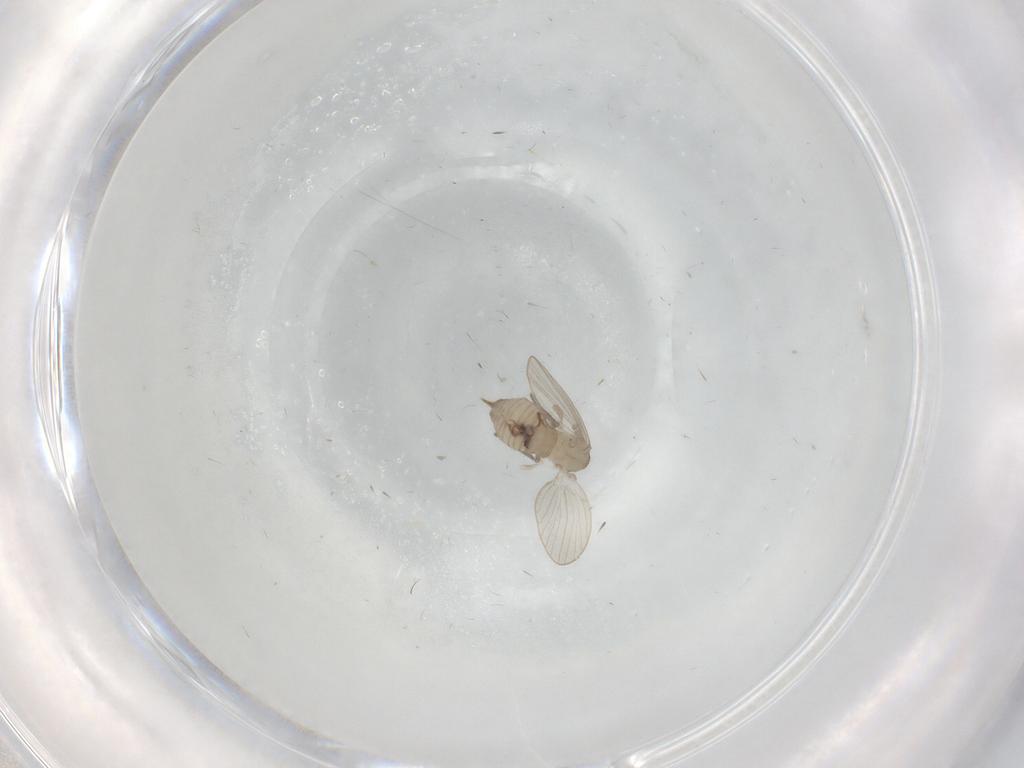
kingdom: Animalia
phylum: Arthropoda
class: Insecta
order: Diptera
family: Psychodidae
